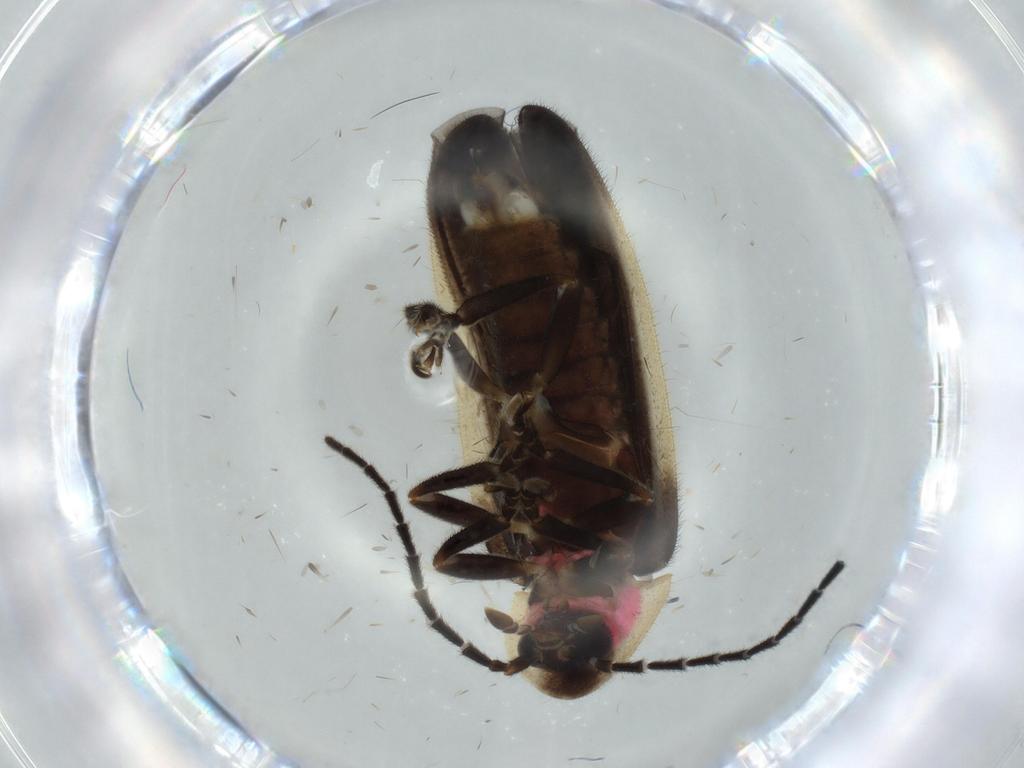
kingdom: Animalia
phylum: Arthropoda
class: Insecta
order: Coleoptera
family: Lampyridae
